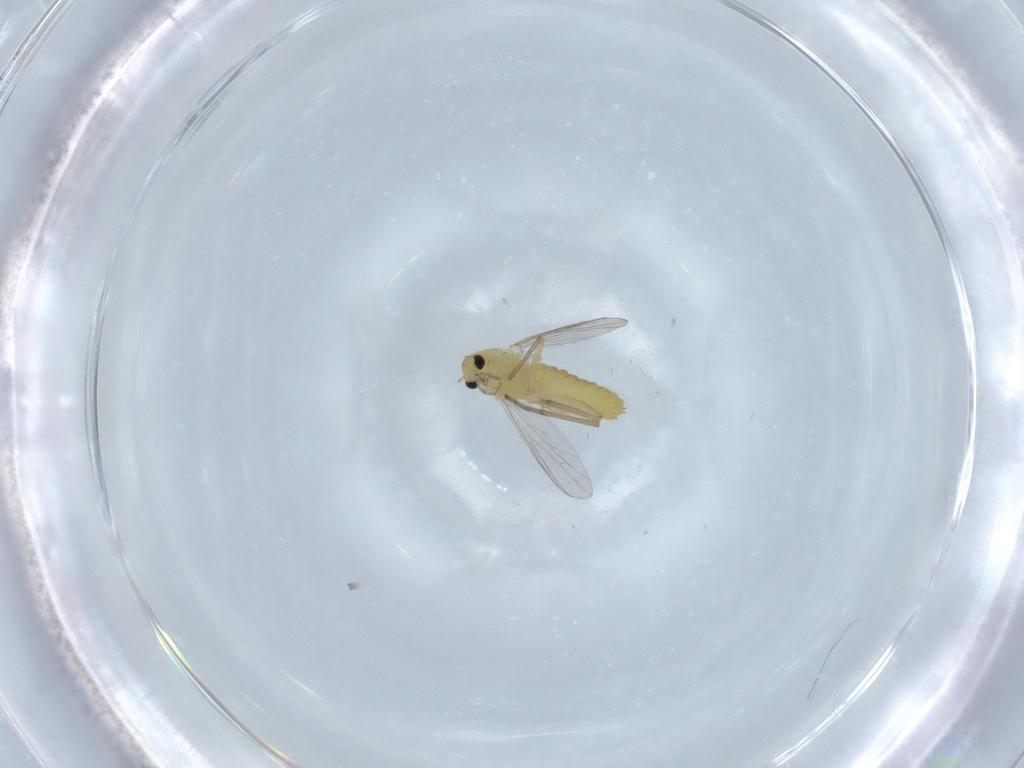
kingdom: Animalia
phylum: Arthropoda
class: Insecta
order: Diptera
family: Chironomidae
